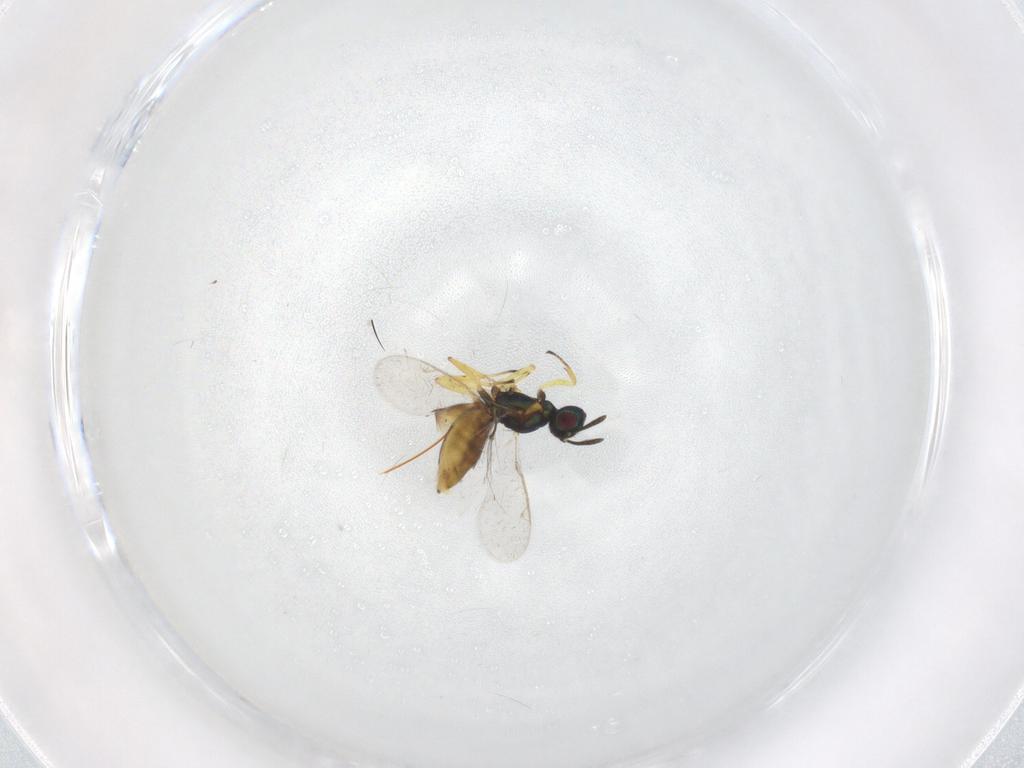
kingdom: Animalia
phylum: Arthropoda
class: Insecta
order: Hymenoptera
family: Eulophidae
